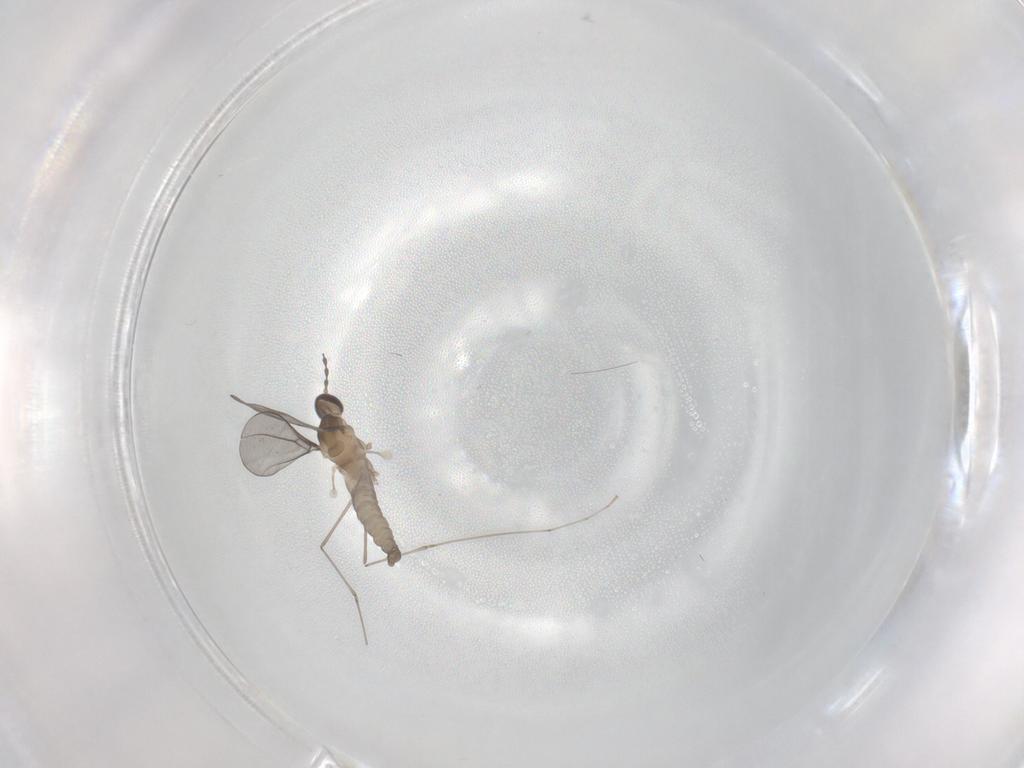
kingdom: Animalia
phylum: Arthropoda
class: Insecta
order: Diptera
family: Cecidomyiidae
